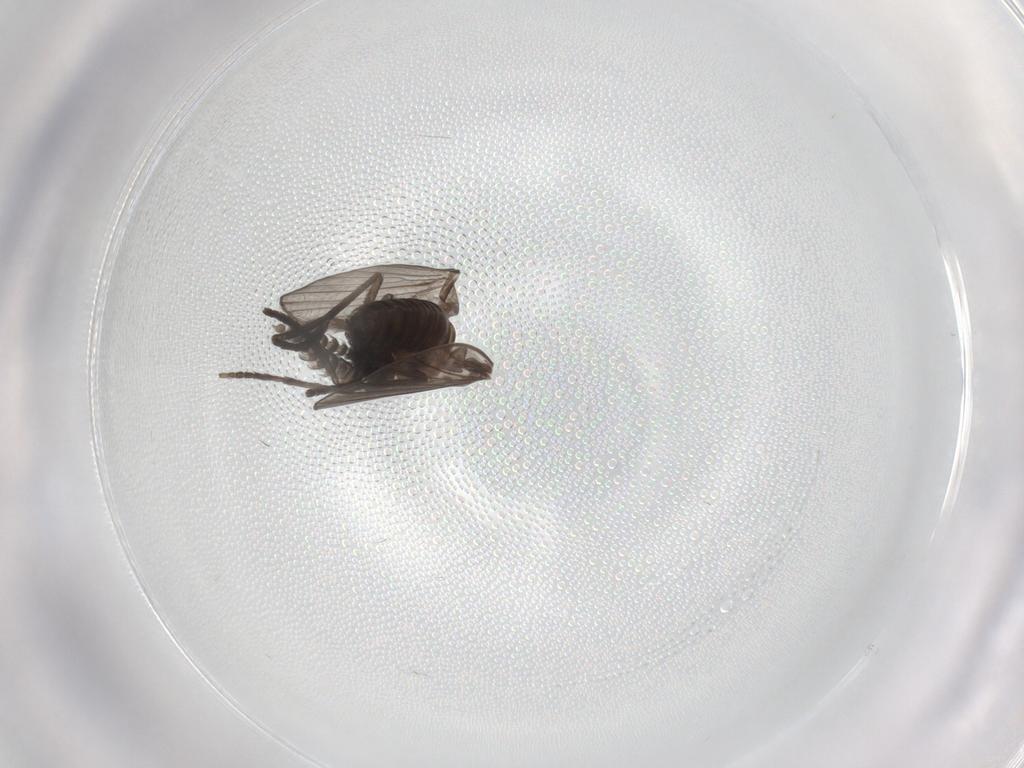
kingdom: Animalia
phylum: Arthropoda
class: Insecta
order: Diptera
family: Psychodidae
